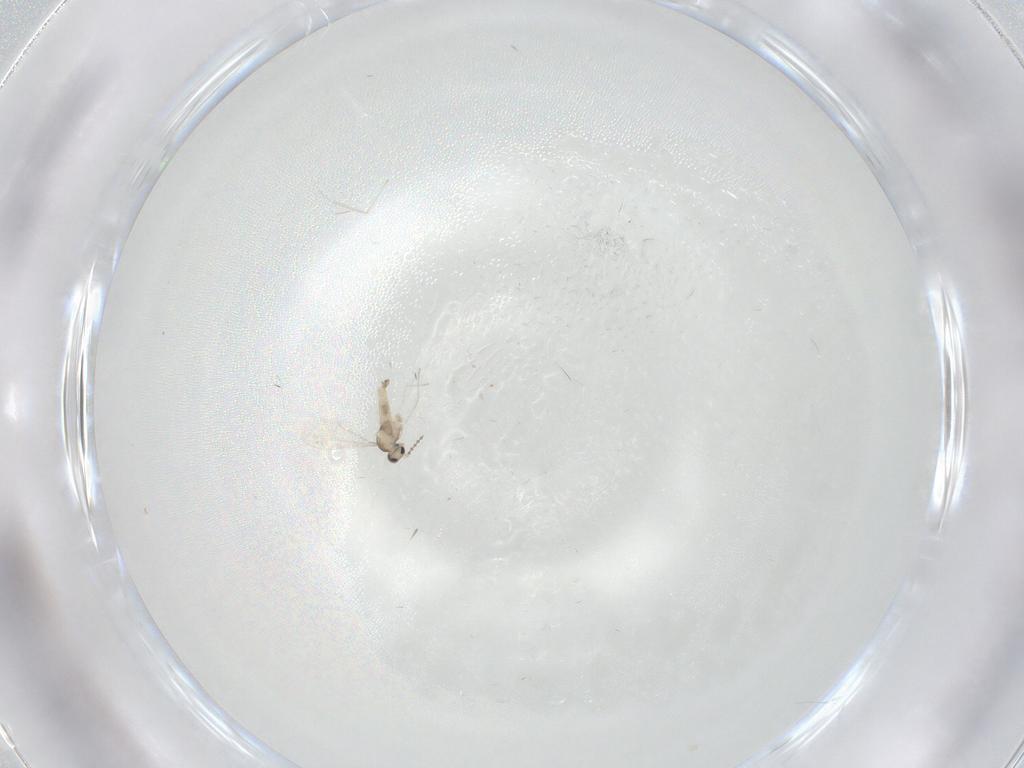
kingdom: Animalia
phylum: Arthropoda
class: Insecta
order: Diptera
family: Cecidomyiidae
